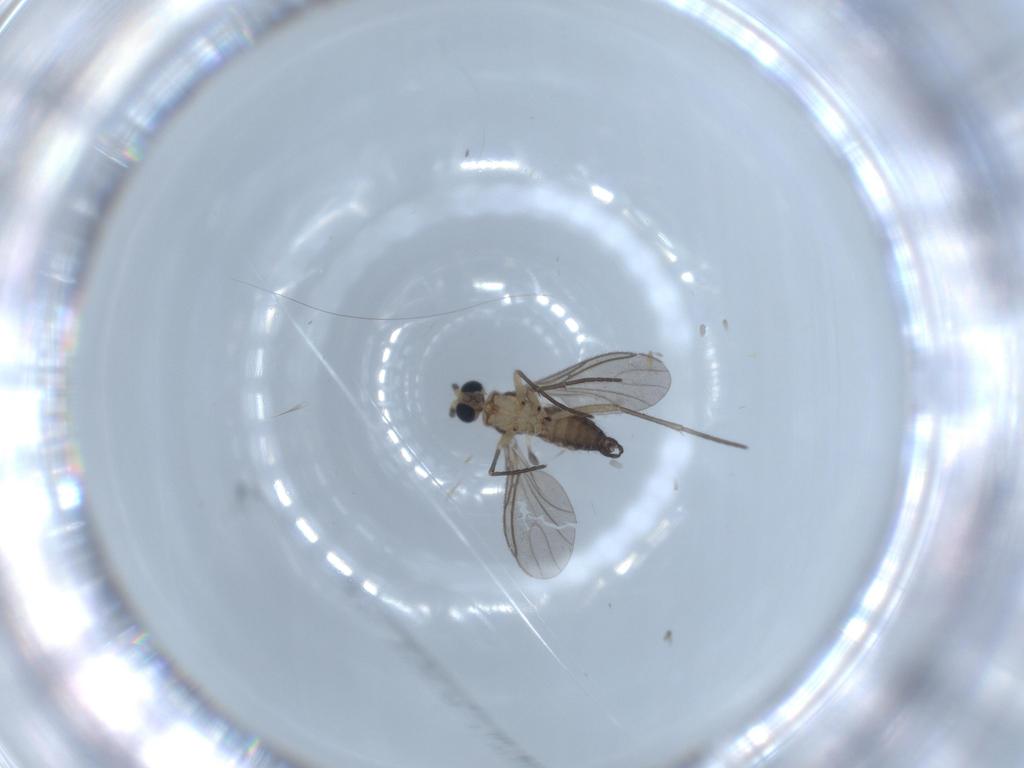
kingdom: Animalia
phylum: Arthropoda
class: Insecta
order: Diptera
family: Sciaridae
